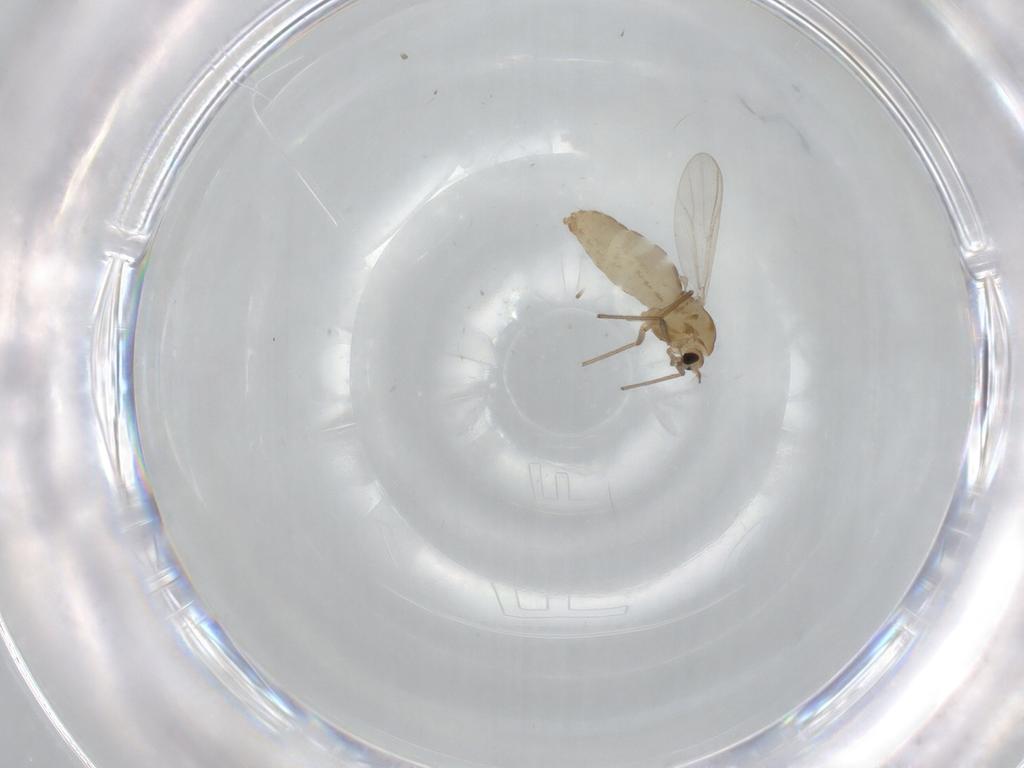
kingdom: Animalia
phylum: Arthropoda
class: Insecta
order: Diptera
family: Chironomidae
